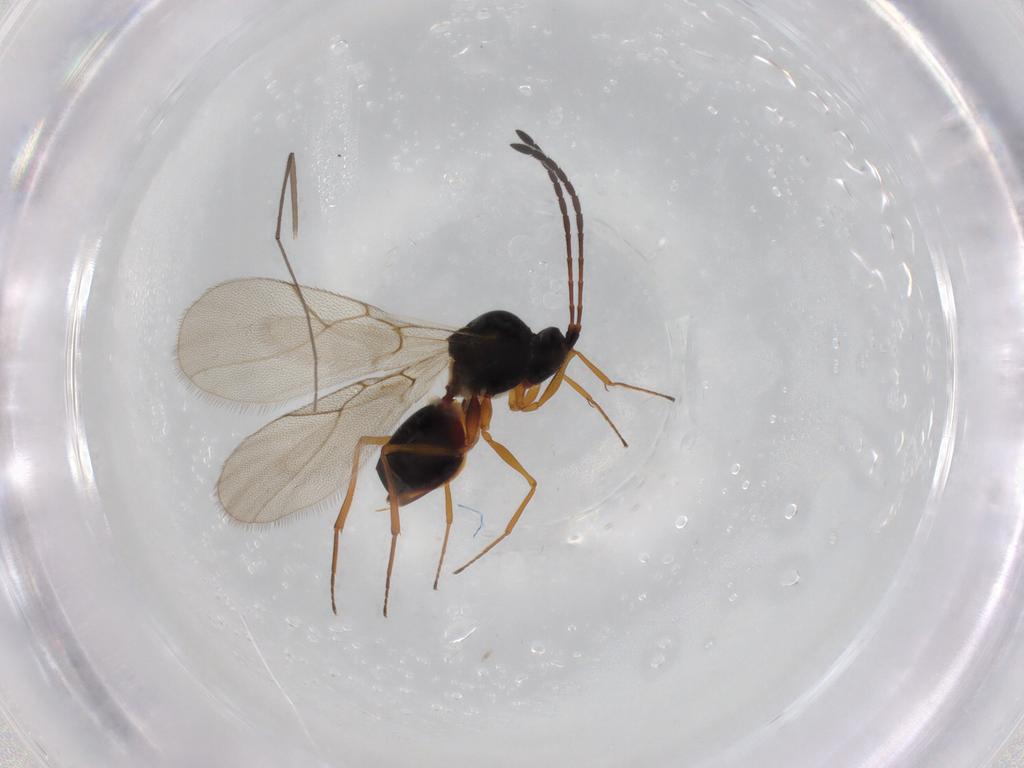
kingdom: Animalia
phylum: Arthropoda
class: Insecta
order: Hymenoptera
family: Figitidae
